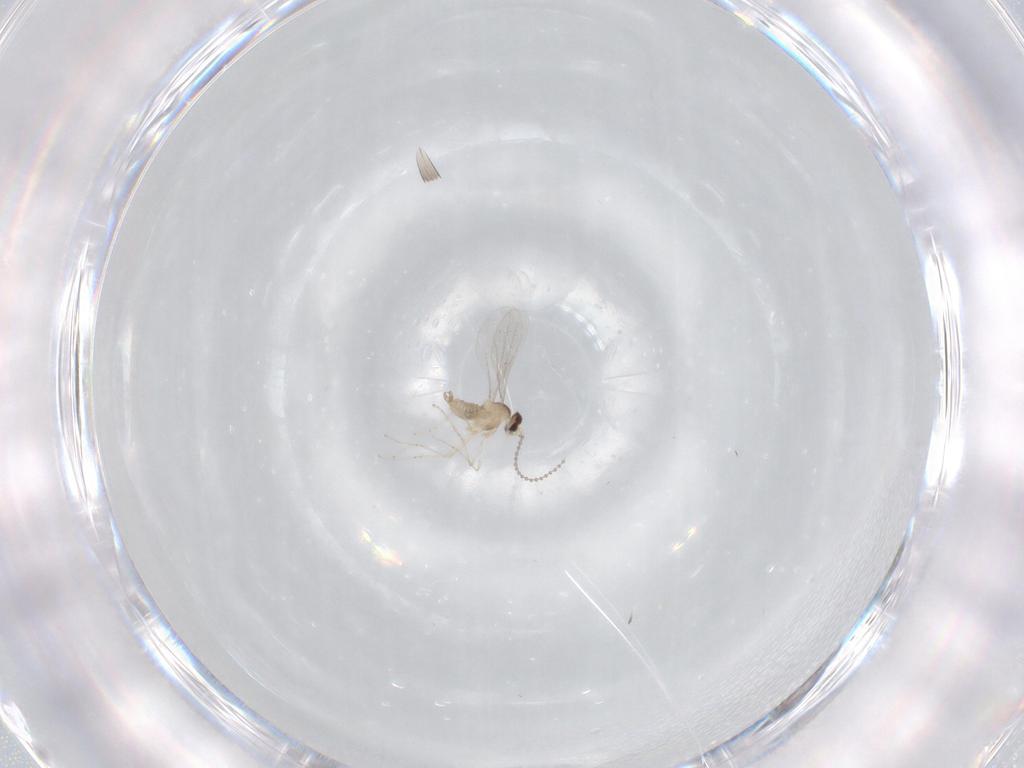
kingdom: Animalia
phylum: Arthropoda
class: Insecta
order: Diptera
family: Cecidomyiidae
